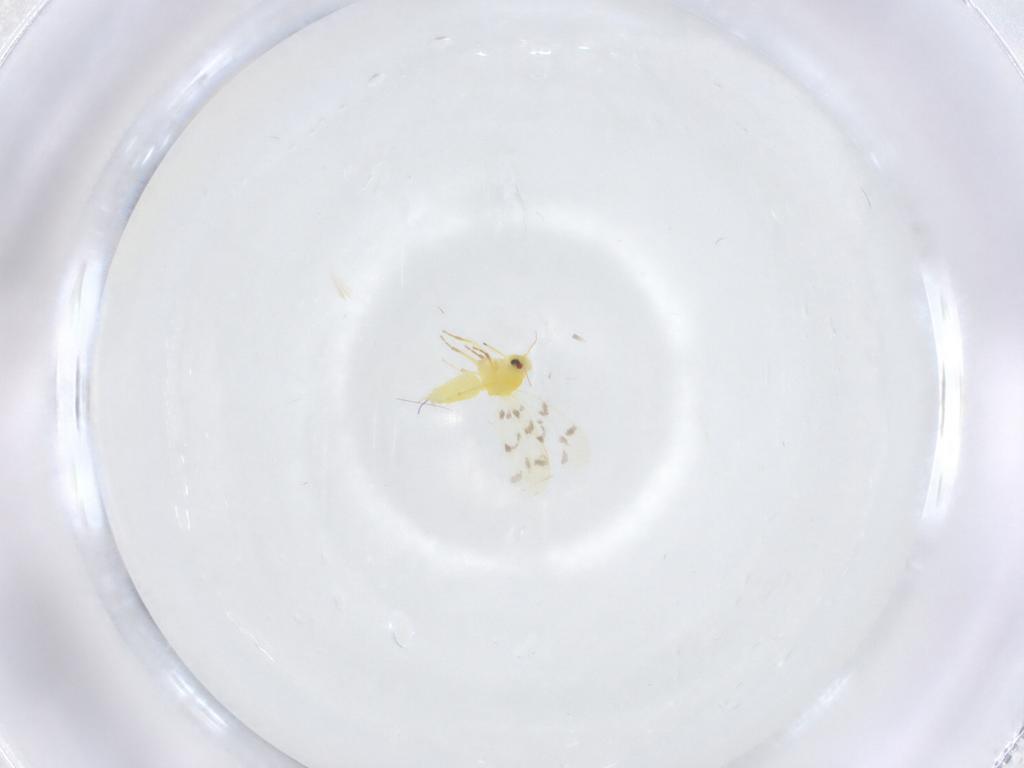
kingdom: Animalia
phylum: Arthropoda
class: Insecta
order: Hemiptera
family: Aleyrodidae
